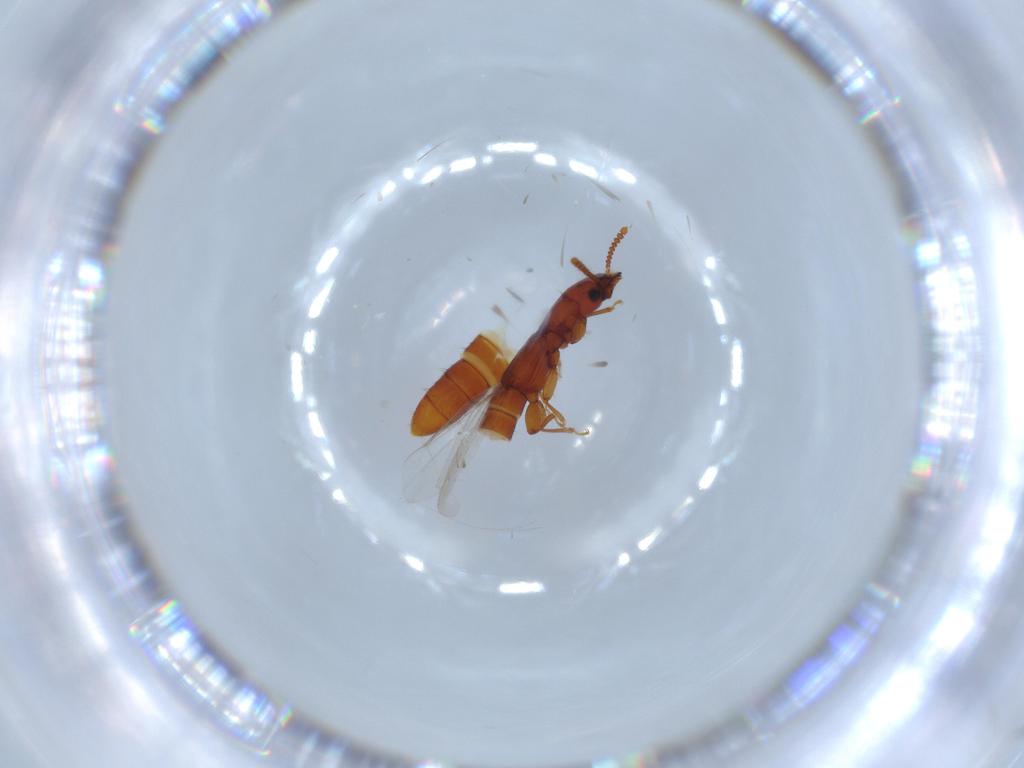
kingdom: Animalia
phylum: Arthropoda
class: Insecta
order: Coleoptera
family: Staphylinidae
